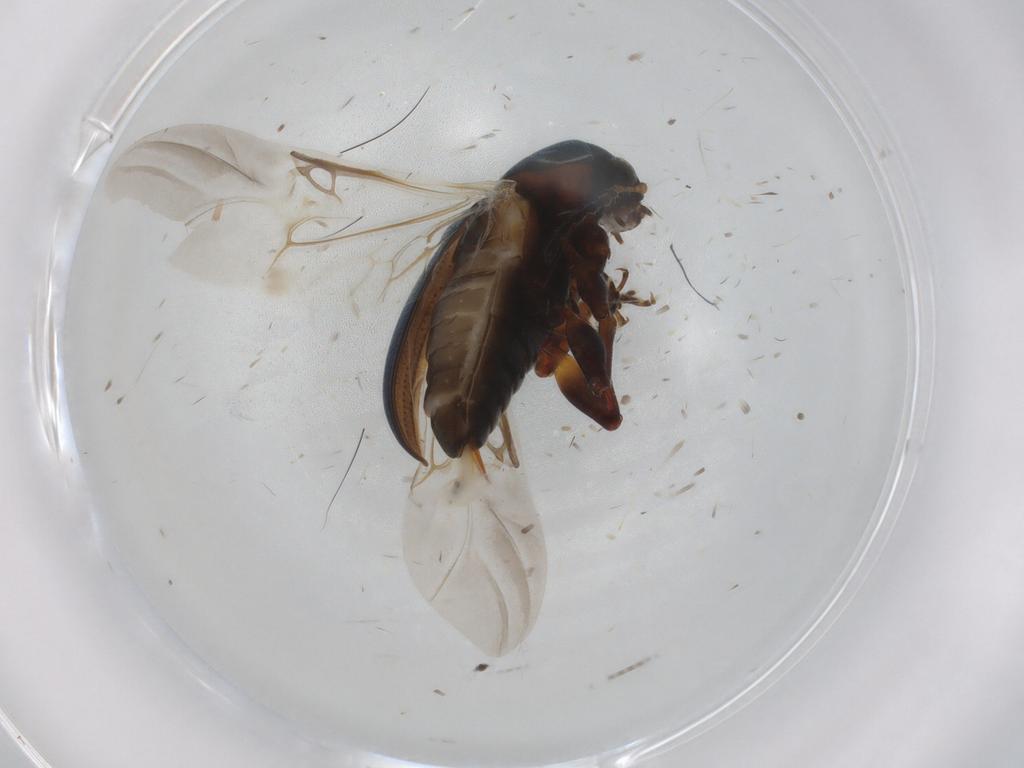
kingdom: Animalia
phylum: Arthropoda
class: Insecta
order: Coleoptera
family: Chrysomelidae
